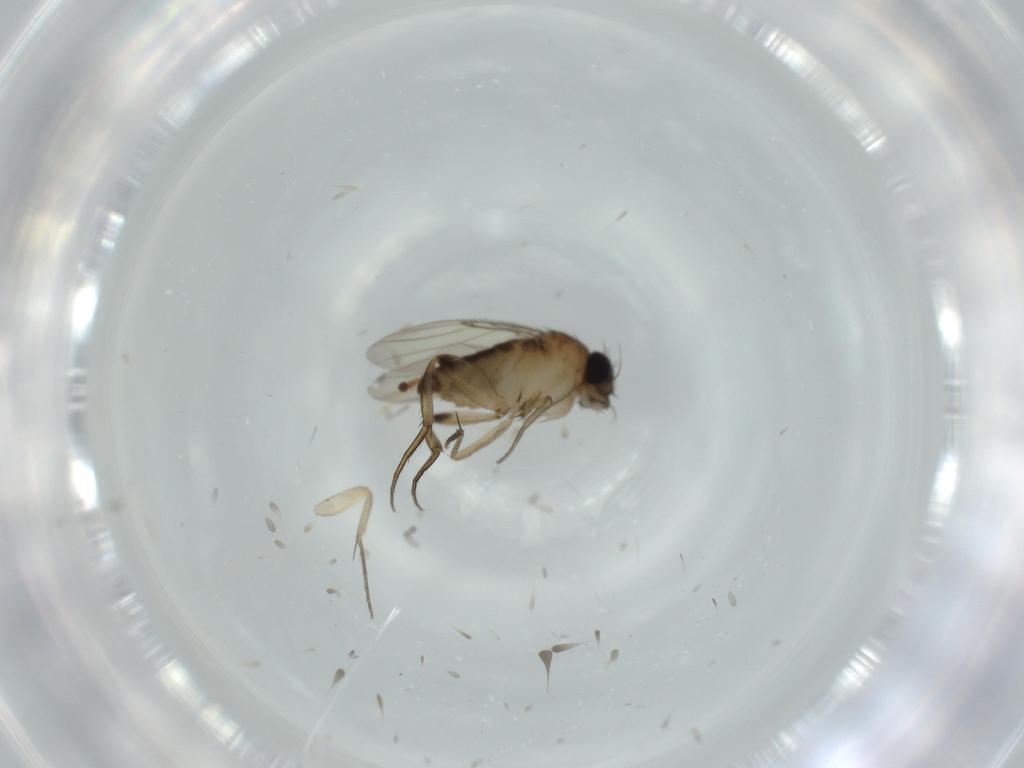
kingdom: Animalia
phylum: Arthropoda
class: Insecta
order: Diptera
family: Phoridae
